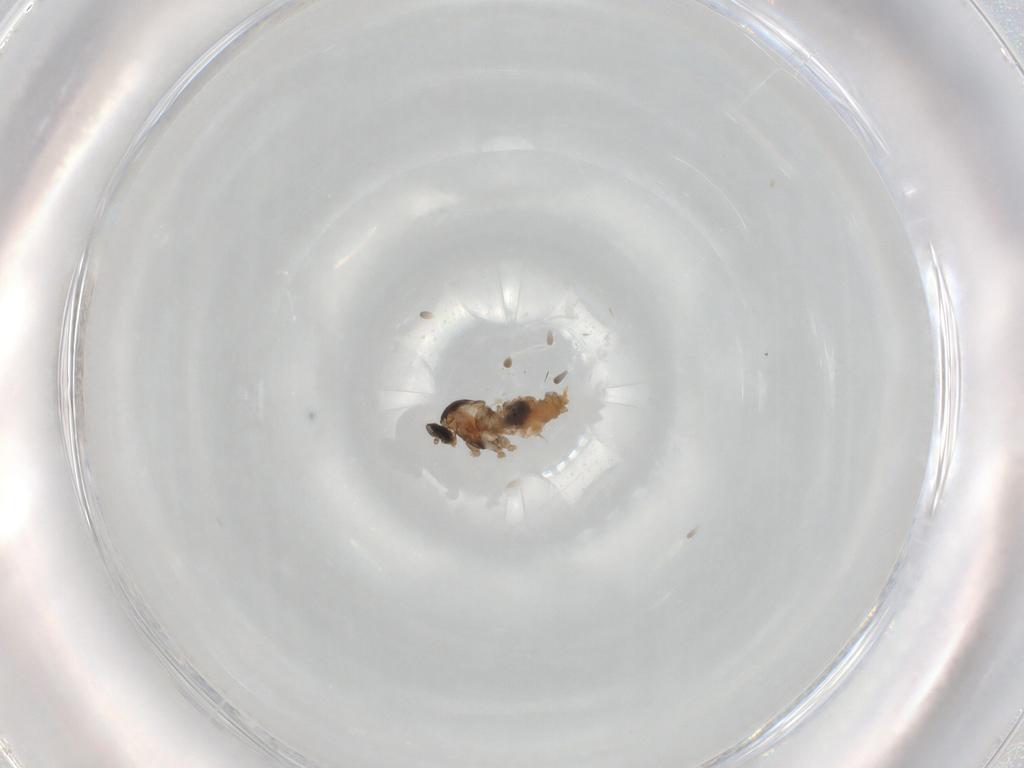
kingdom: Animalia
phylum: Arthropoda
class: Insecta
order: Diptera
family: Cecidomyiidae
